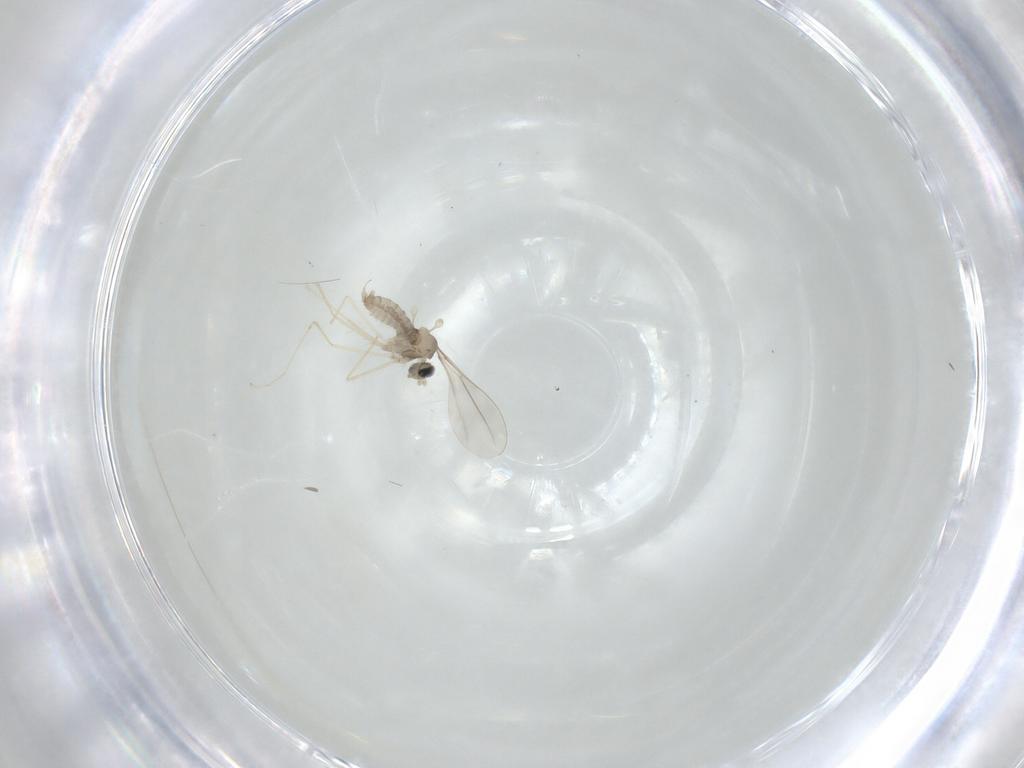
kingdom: Animalia
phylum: Arthropoda
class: Insecta
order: Diptera
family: Cecidomyiidae
